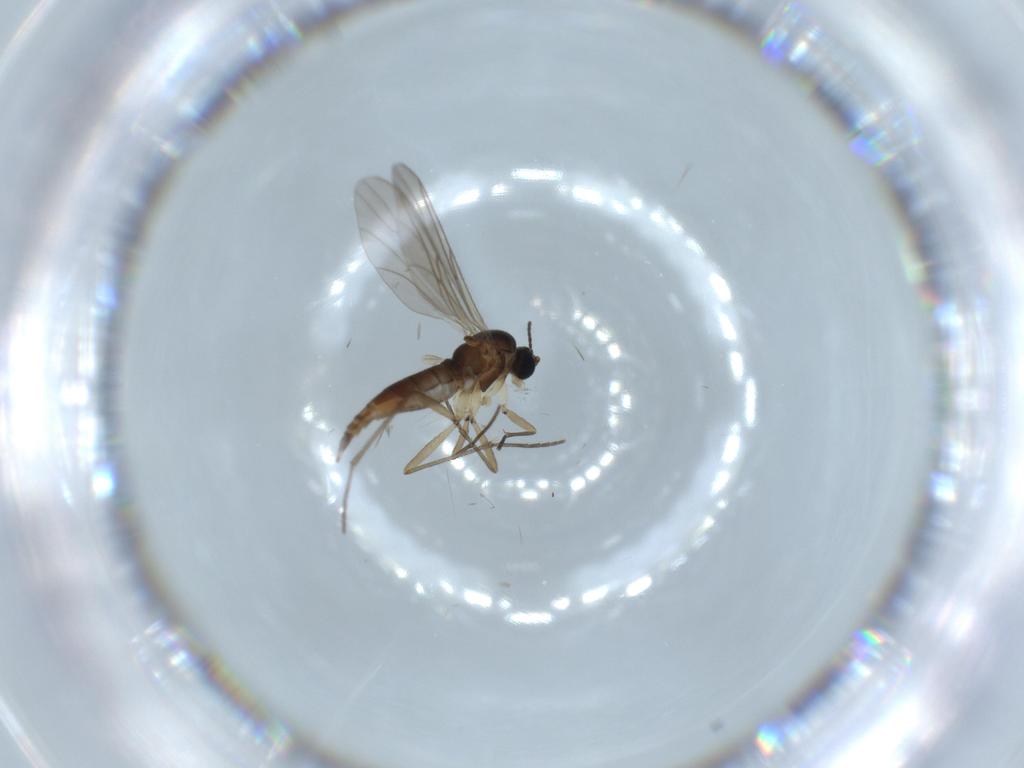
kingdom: Animalia
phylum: Arthropoda
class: Insecta
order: Diptera
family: Sciaridae
